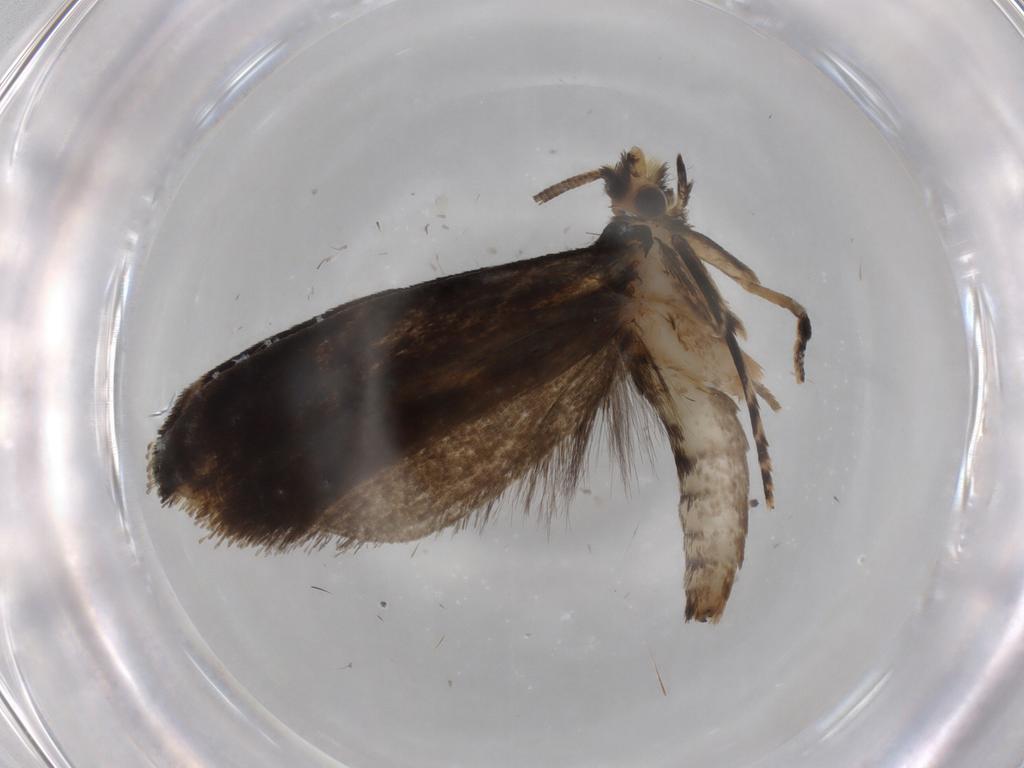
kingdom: Animalia
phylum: Arthropoda
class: Insecta
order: Lepidoptera
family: Tineidae
